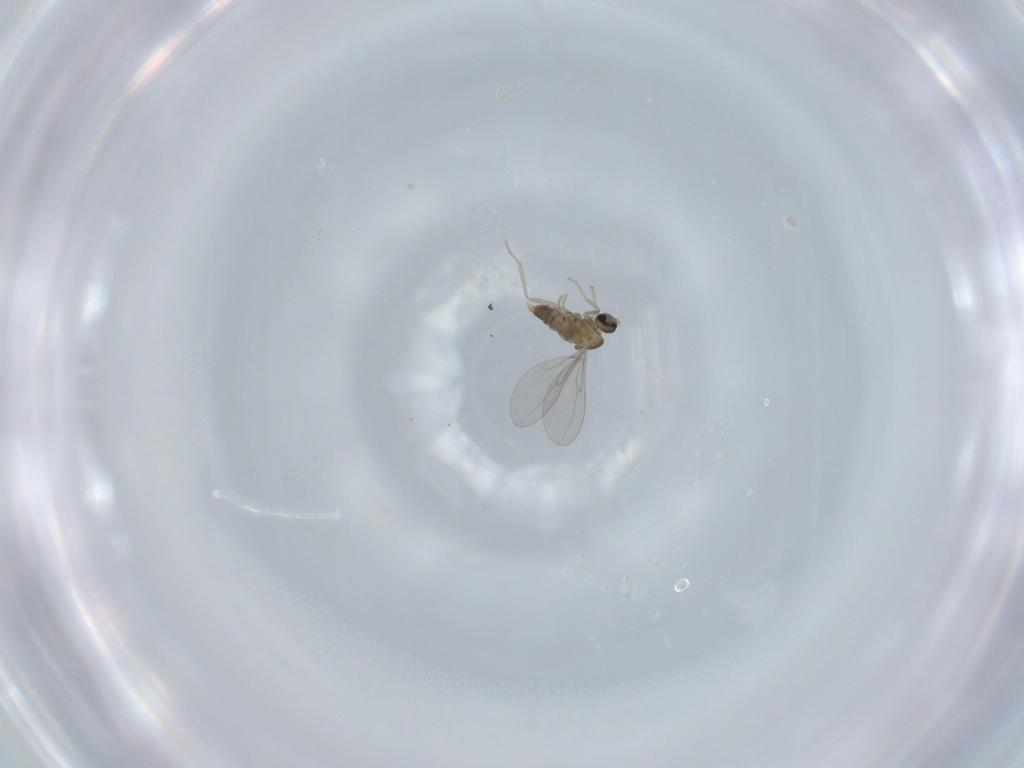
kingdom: Animalia
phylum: Arthropoda
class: Insecta
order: Diptera
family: Cecidomyiidae
